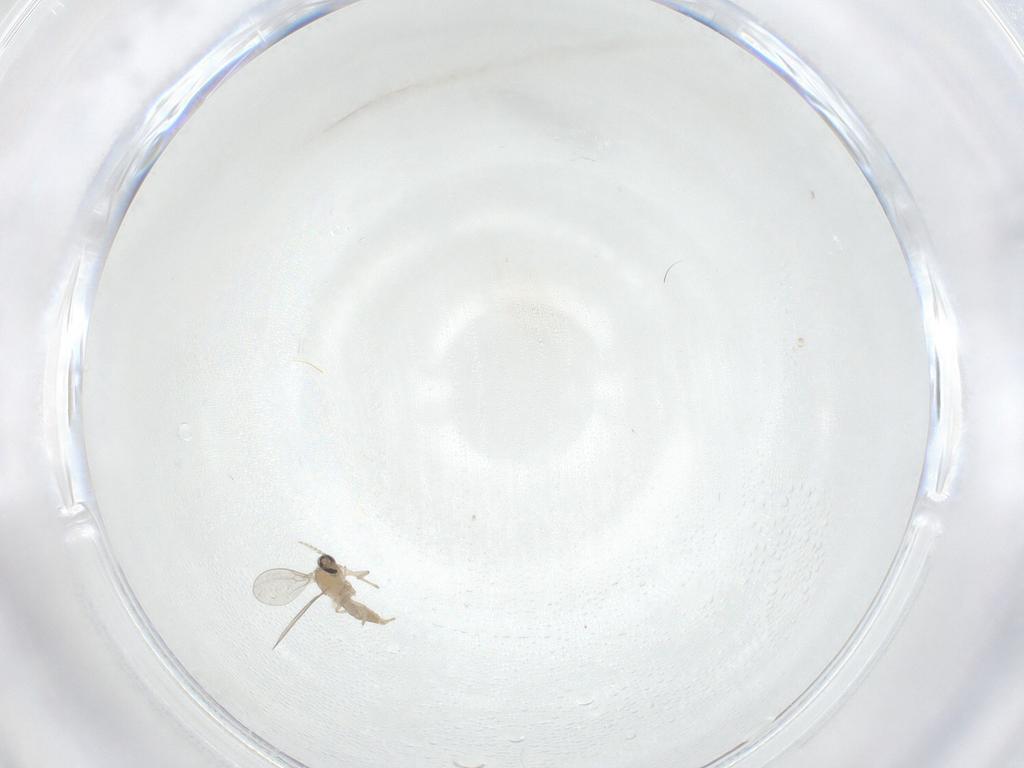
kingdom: Animalia
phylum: Arthropoda
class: Insecta
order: Diptera
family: Cecidomyiidae
